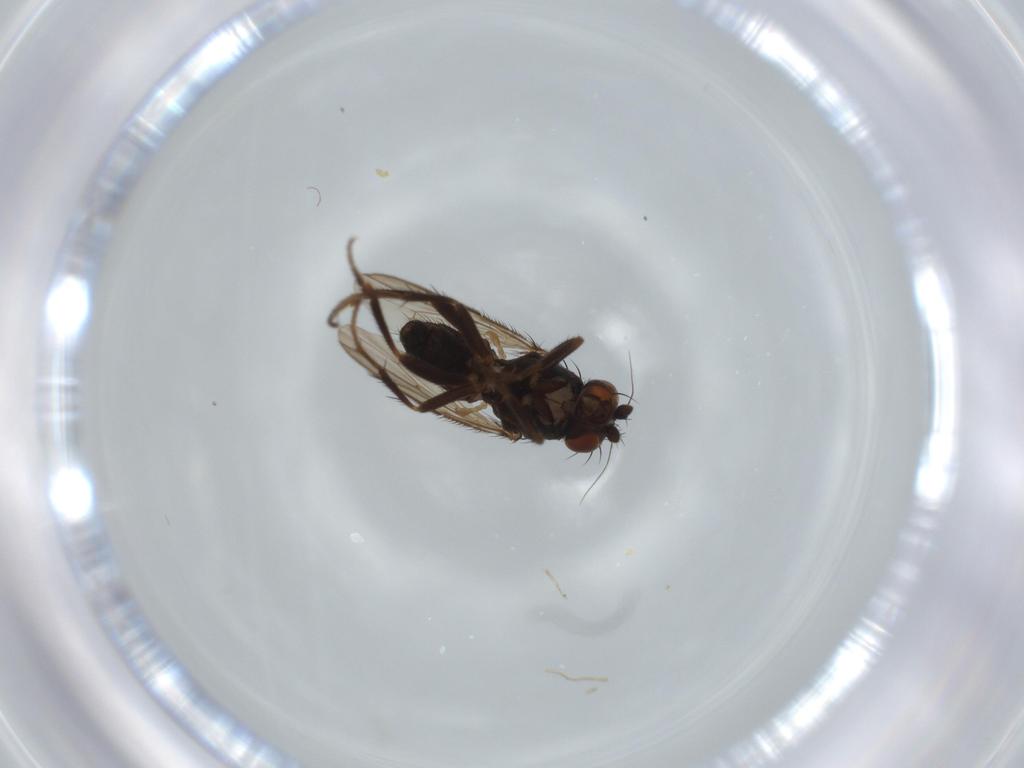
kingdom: Animalia
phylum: Arthropoda
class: Insecta
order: Diptera
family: Sphaeroceridae
